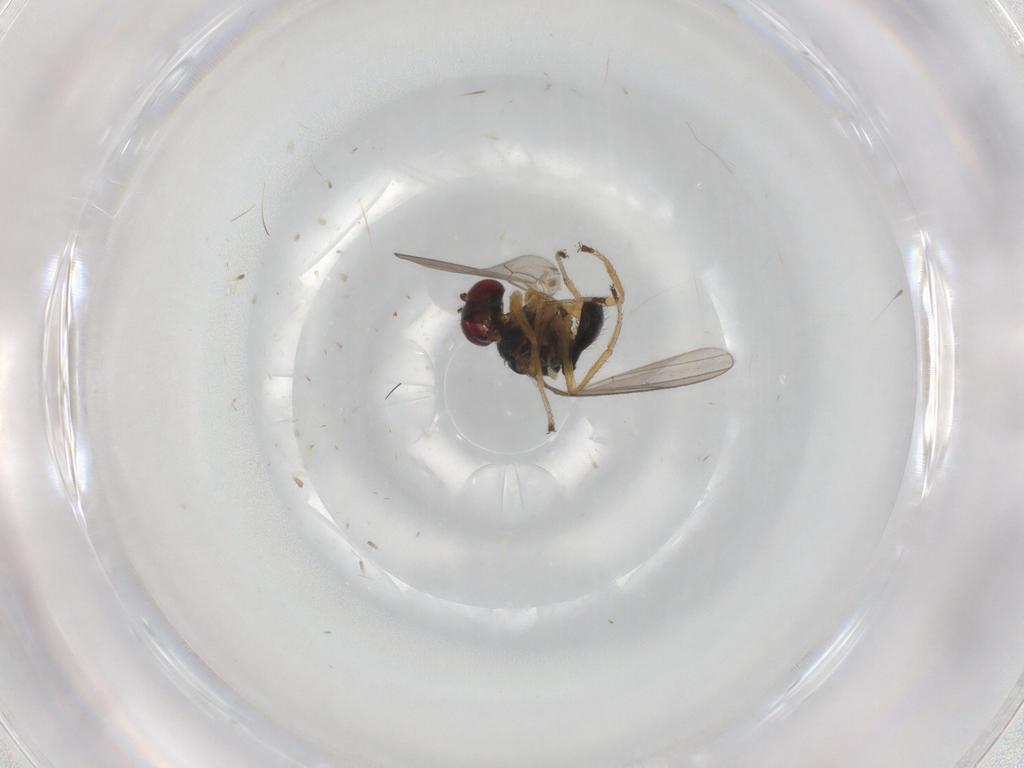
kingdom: Animalia
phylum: Arthropoda
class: Insecta
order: Diptera
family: Ephydridae
